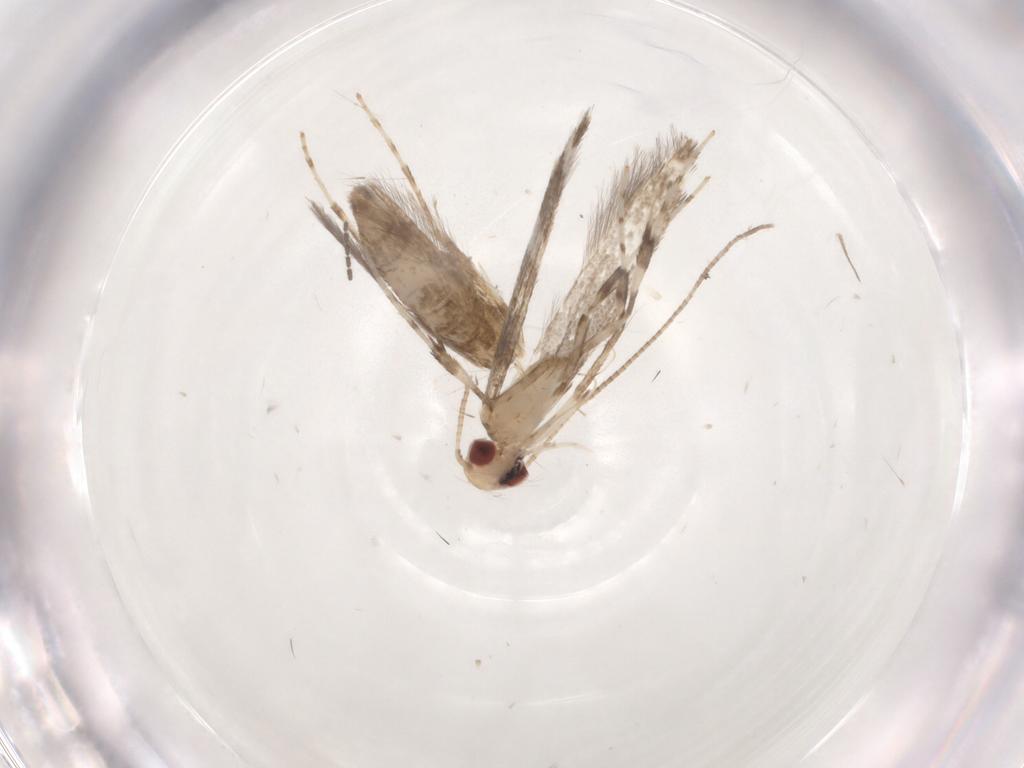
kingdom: Animalia
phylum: Arthropoda
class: Insecta
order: Lepidoptera
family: Gracillariidae
